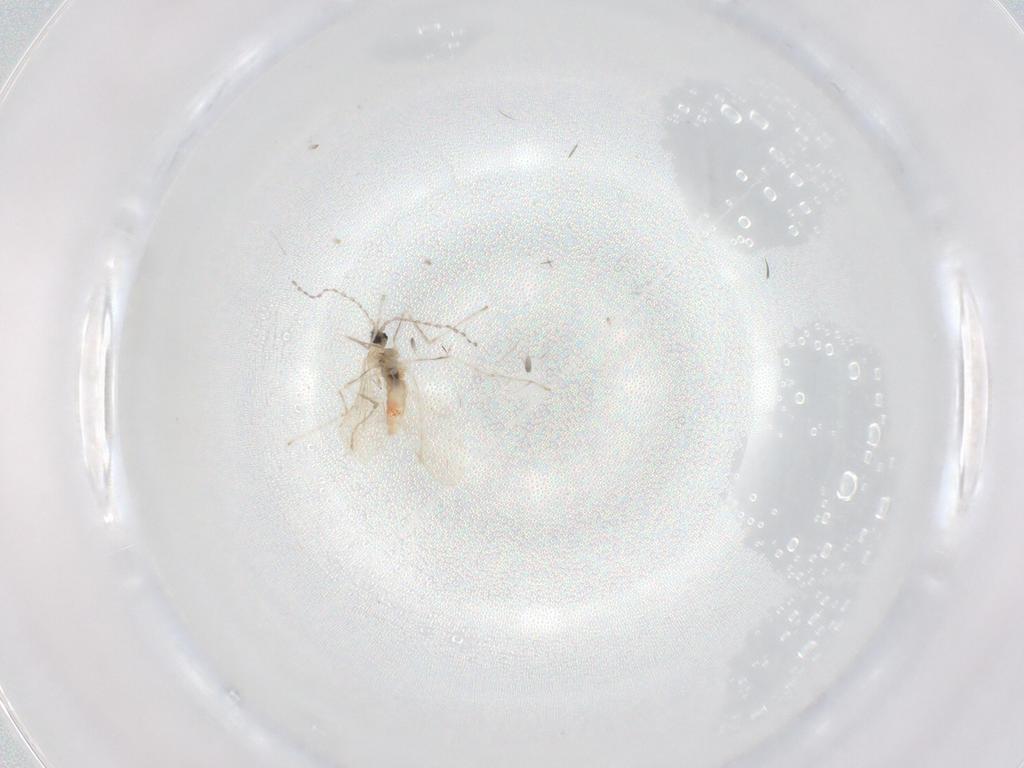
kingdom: Animalia
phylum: Arthropoda
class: Insecta
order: Diptera
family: Cecidomyiidae
